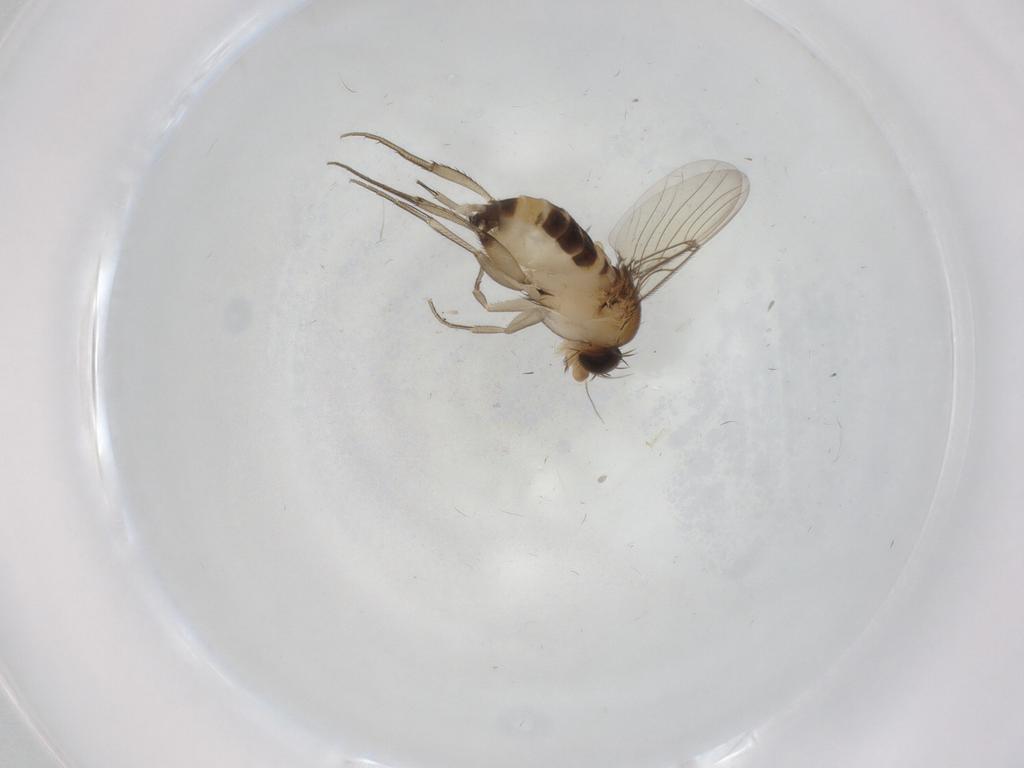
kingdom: Animalia
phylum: Arthropoda
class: Insecta
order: Diptera
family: Phoridae
